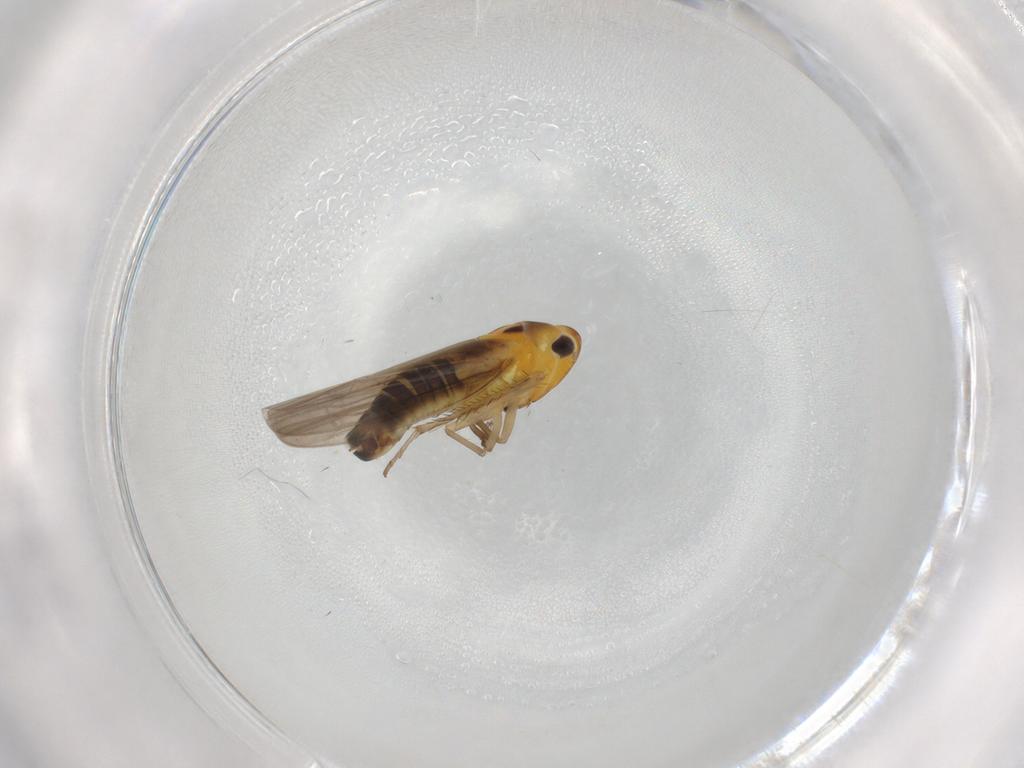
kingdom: Animalia
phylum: Arthropoda
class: Insecta
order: Hemiptera
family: Cicadellidae
